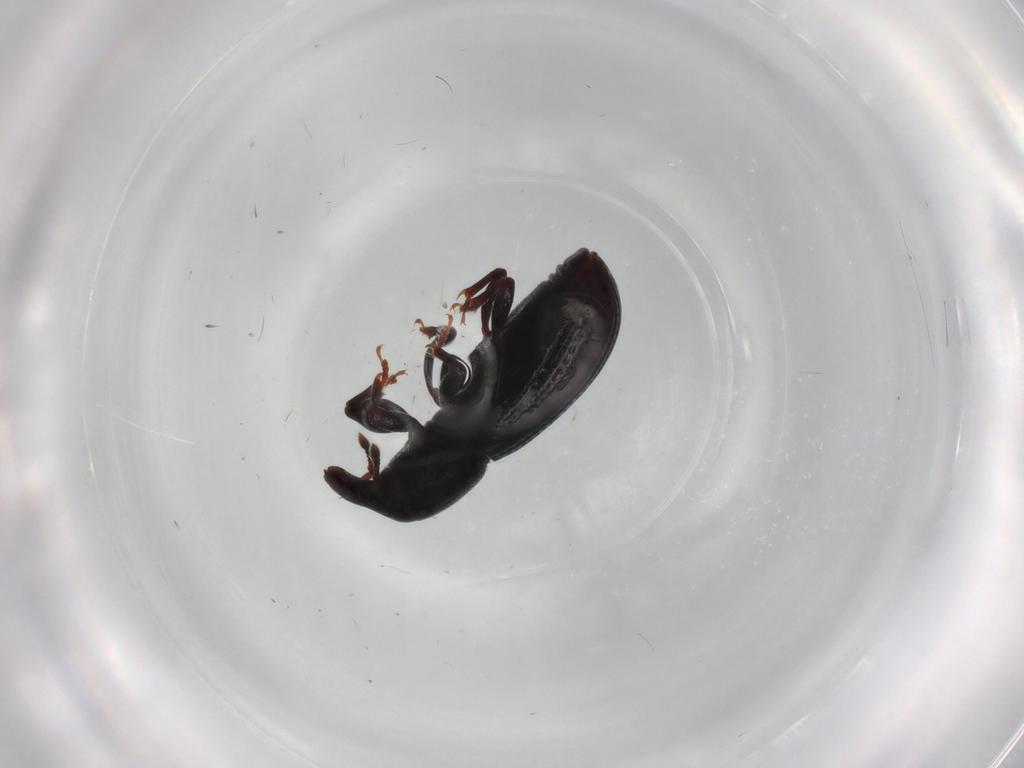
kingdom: Animalia
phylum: Arthropoda
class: Insecta
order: Coleoptera
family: Curculionidae
